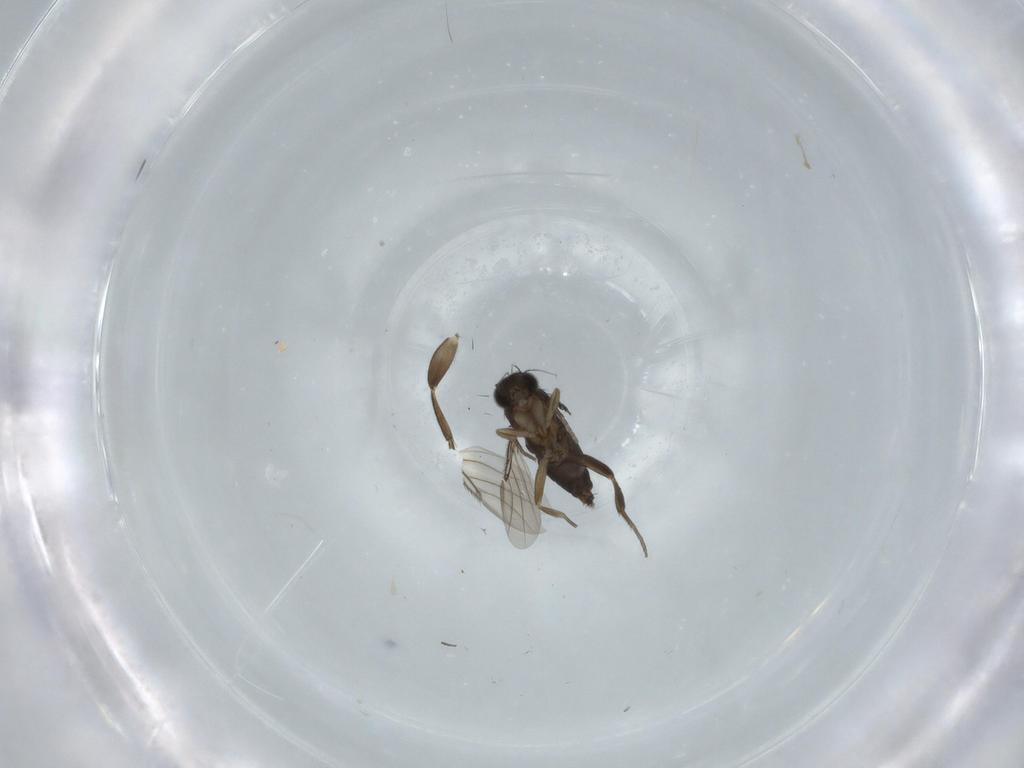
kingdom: Animalia
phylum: Arthropoda
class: Insecta
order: Diptera
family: Phoridae
